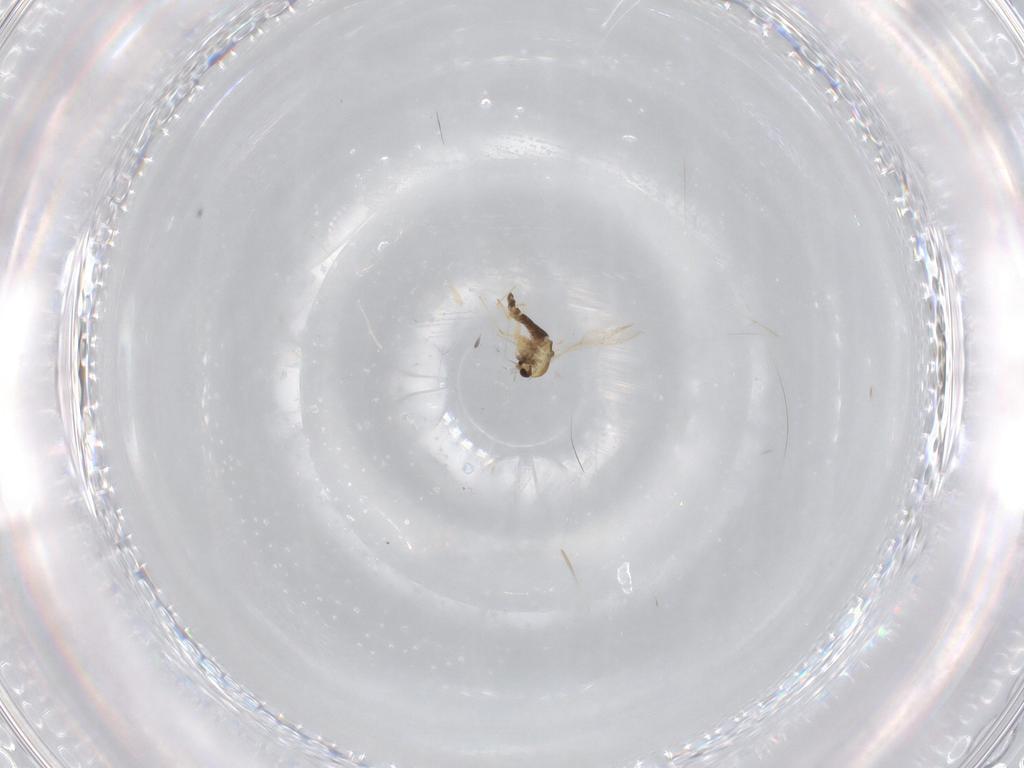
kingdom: Animalia
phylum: Arthropoda
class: Insecta
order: Diptera
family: Chironomidae
